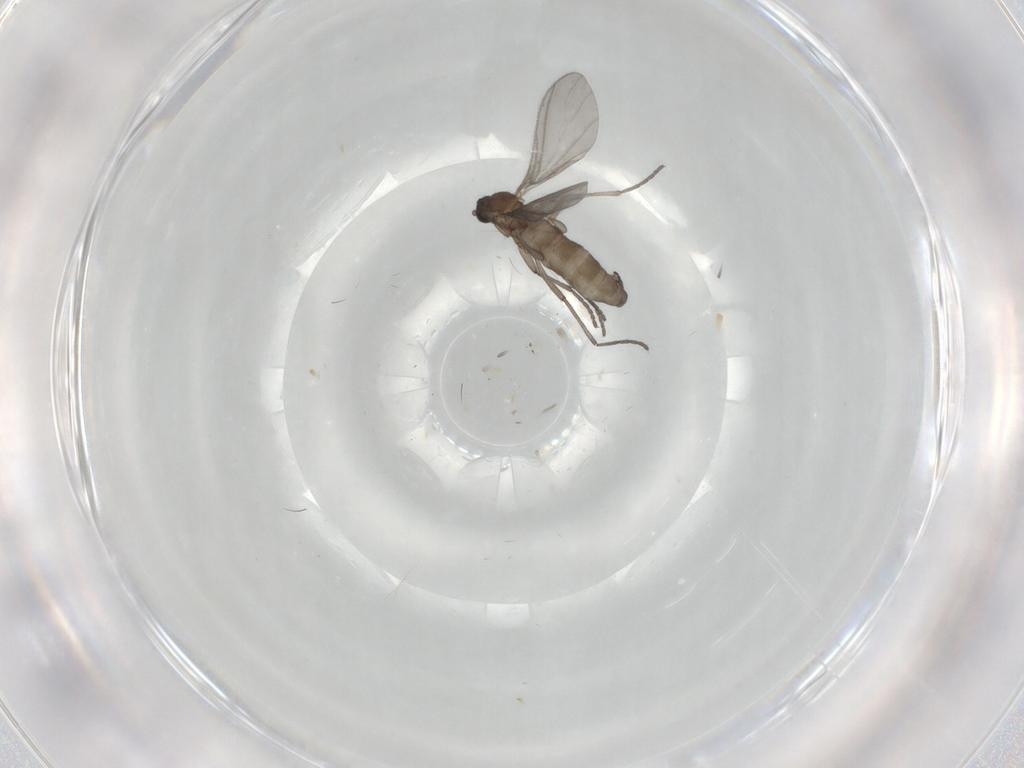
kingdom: Animalia
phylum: Arthropoda
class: Insecta
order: Diptera
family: Sciaridae
